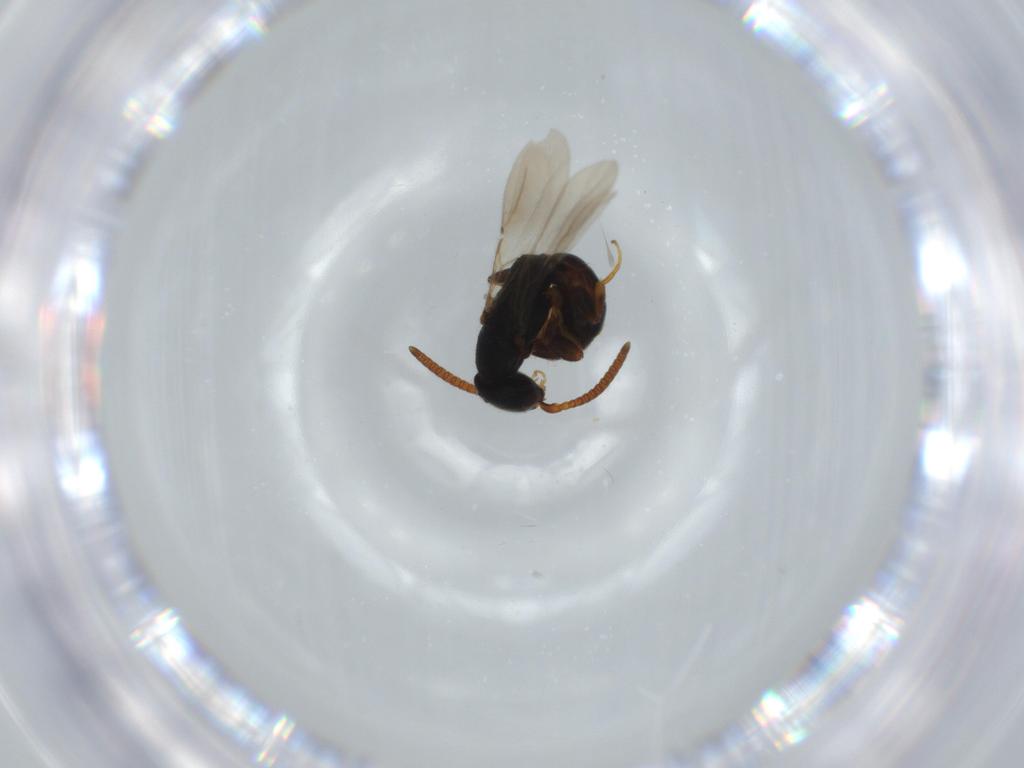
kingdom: Animalia
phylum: Arthropoda
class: Insecta
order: Hymenoptera
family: Bethylidae
